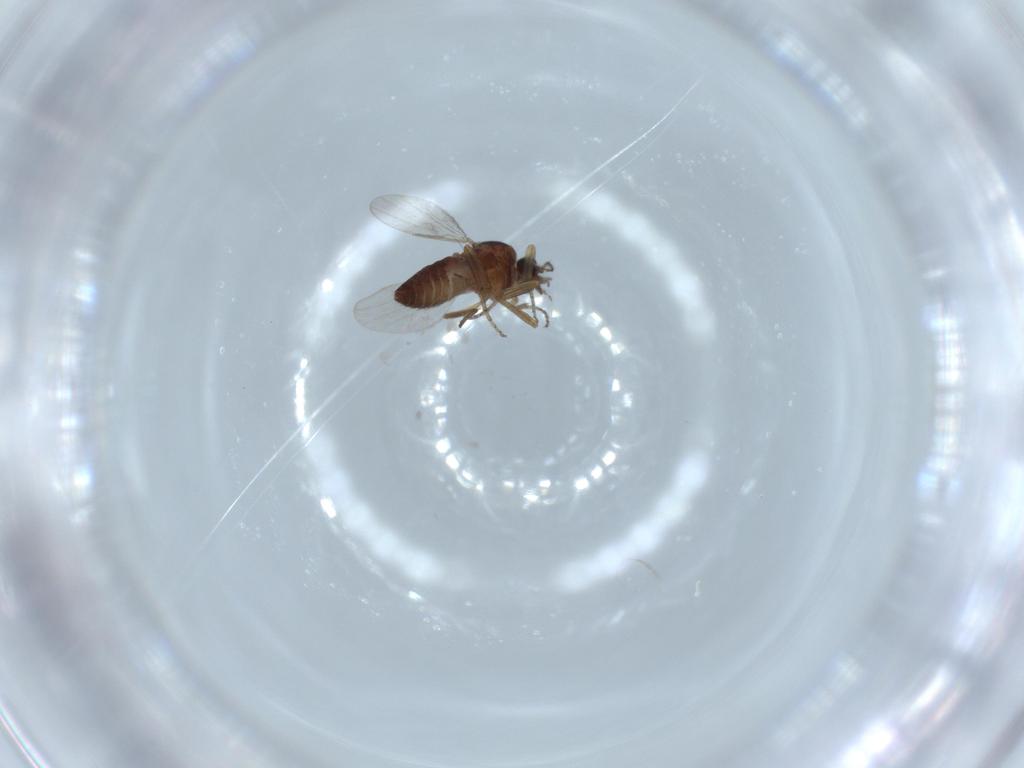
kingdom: Animalia
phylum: Arthropoda
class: Insecta
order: Diptera
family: Ceratopogonidae
